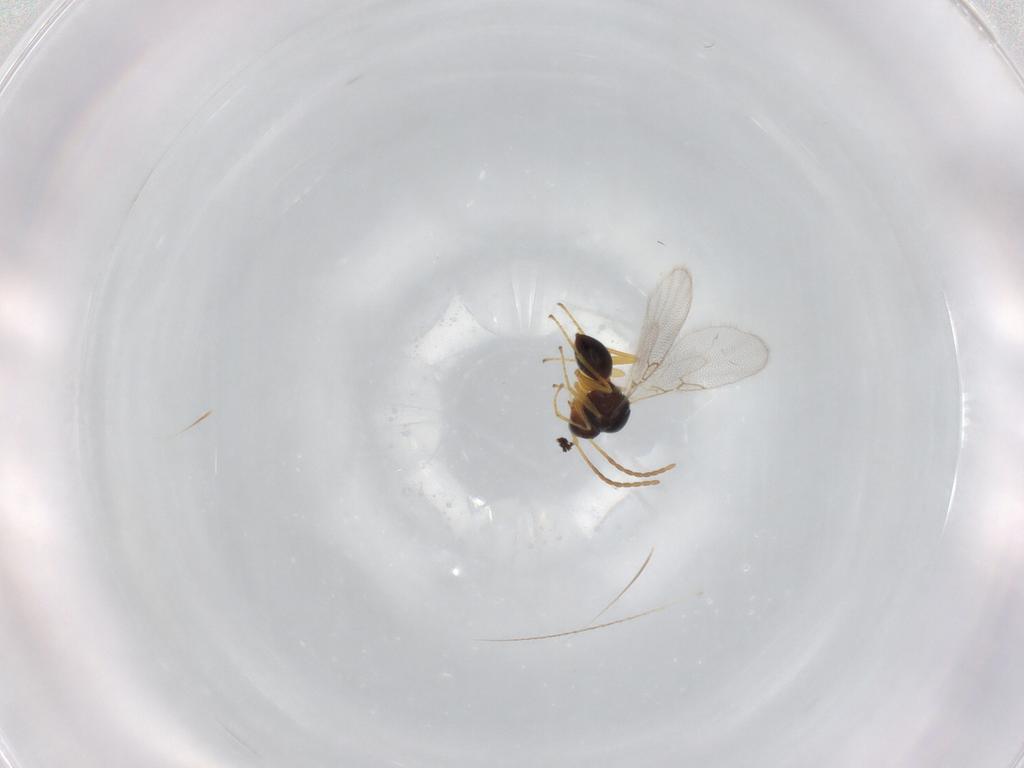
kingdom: Animalia
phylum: Arthropoda
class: Insecta
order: Hymenoptera
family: Figitidae
